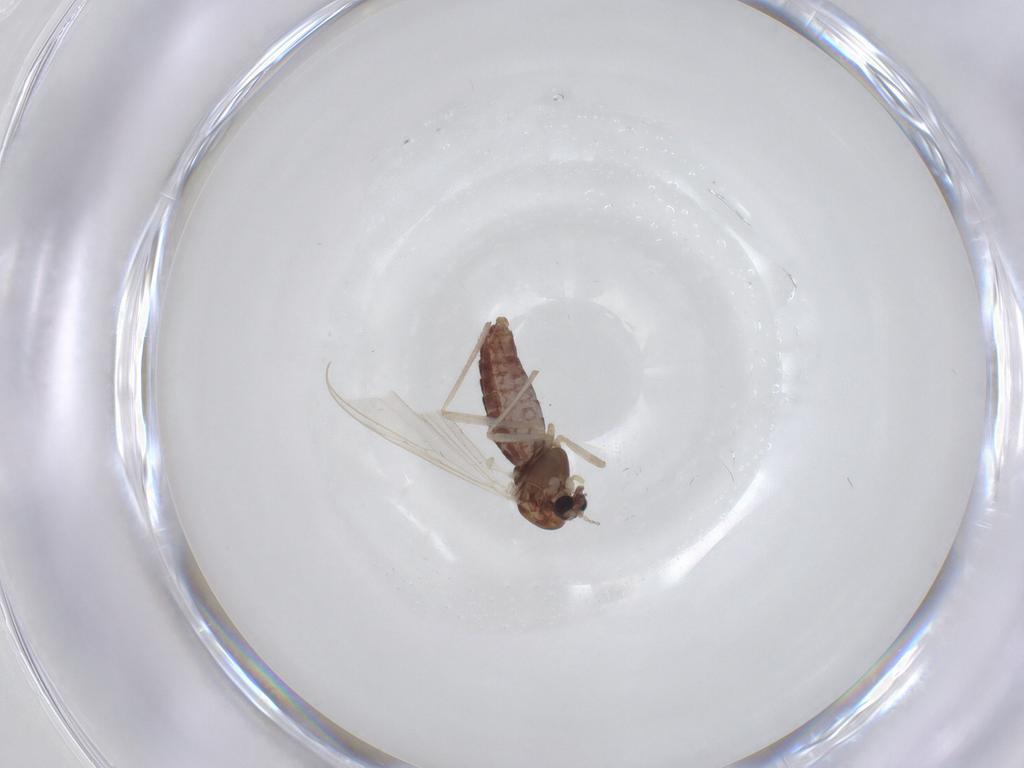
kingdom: Animalia
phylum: Arthropoda
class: Insecta
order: Diptera
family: Chironomidae
